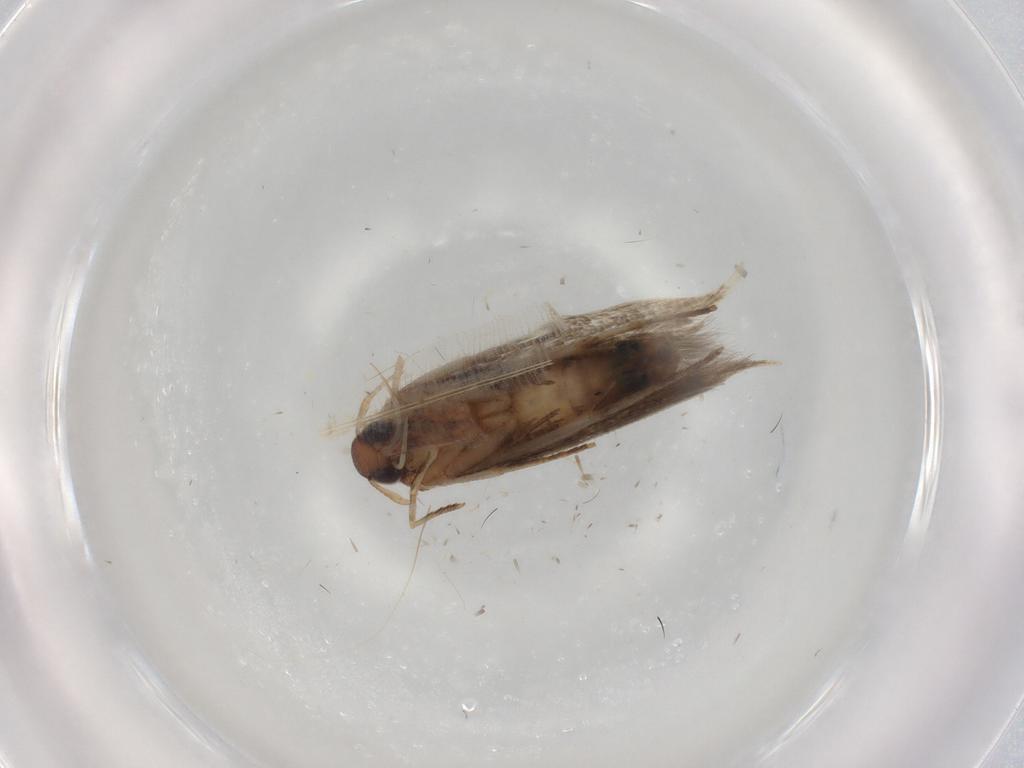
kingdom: Animalia
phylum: Arthropoda
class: Insecta
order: Lepidoptera
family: Cosmopterigidae
